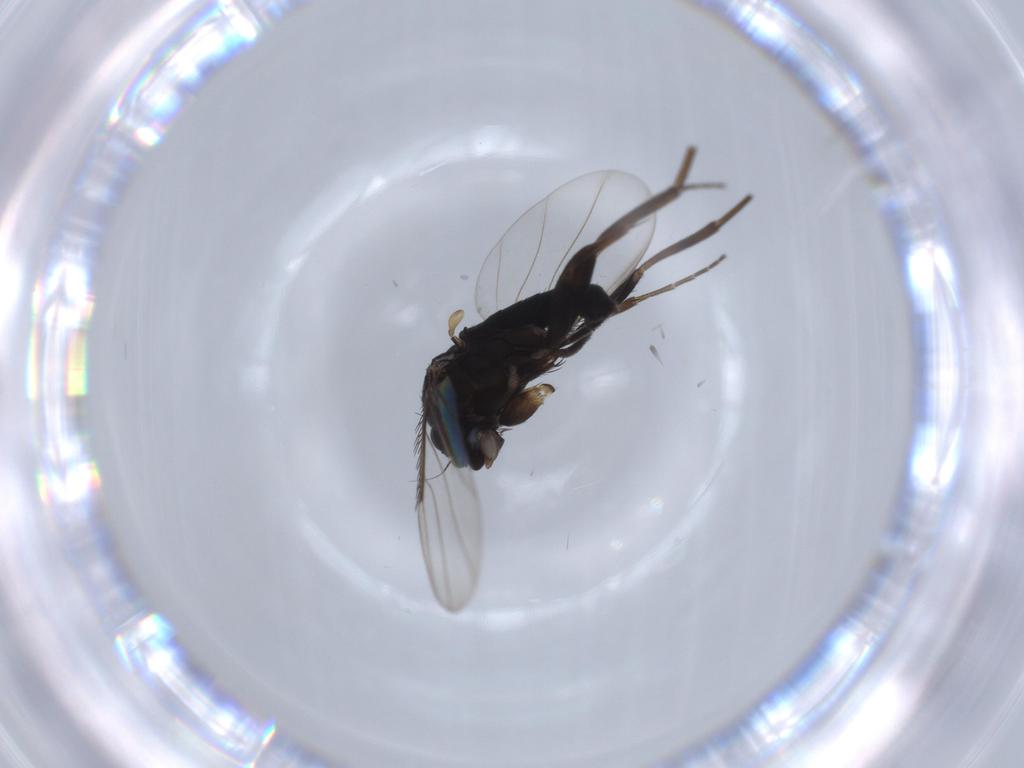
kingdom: Animalia
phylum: Arthropoda
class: Insecta
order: Diptera
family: Phoridae
